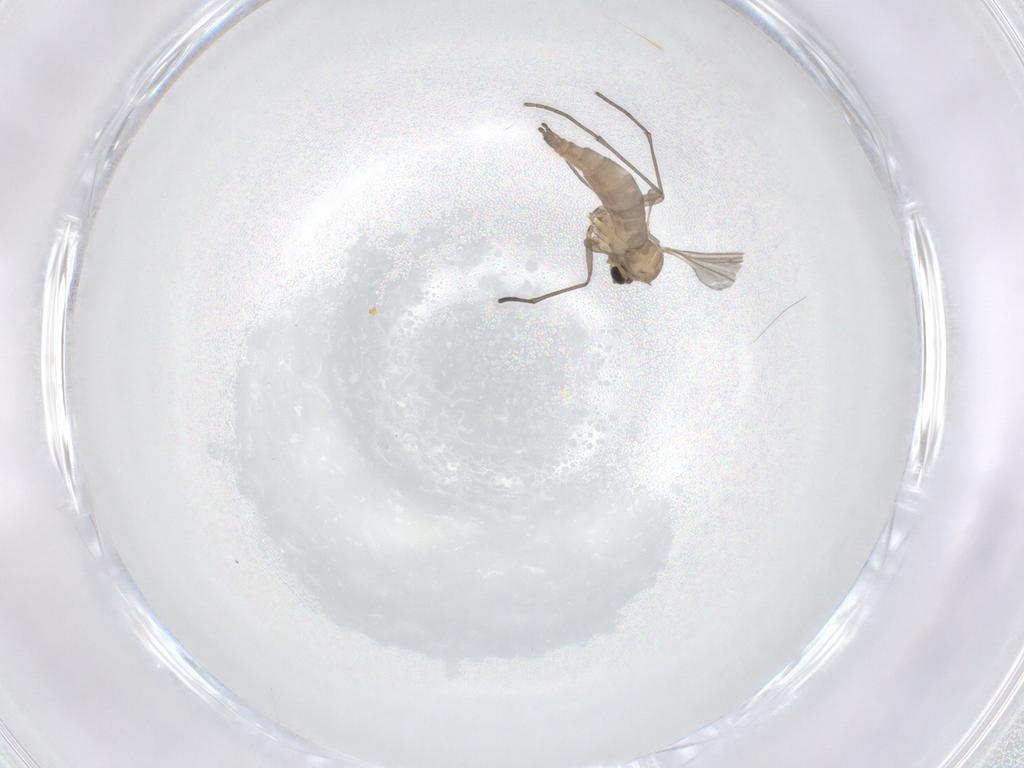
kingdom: Animalia
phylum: Arthropoda
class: Insecta
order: Diptera
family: Sciaridae
